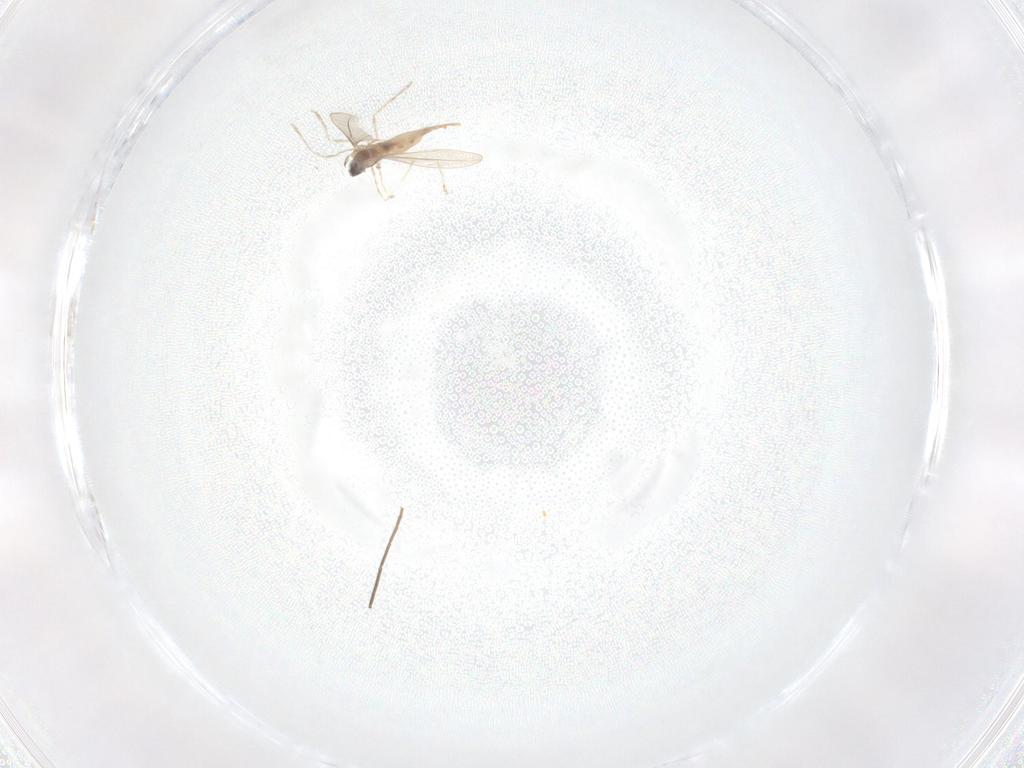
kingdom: Animalia
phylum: Arthropoda
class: Insecta
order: Diptera
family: Cecidomyiidae
